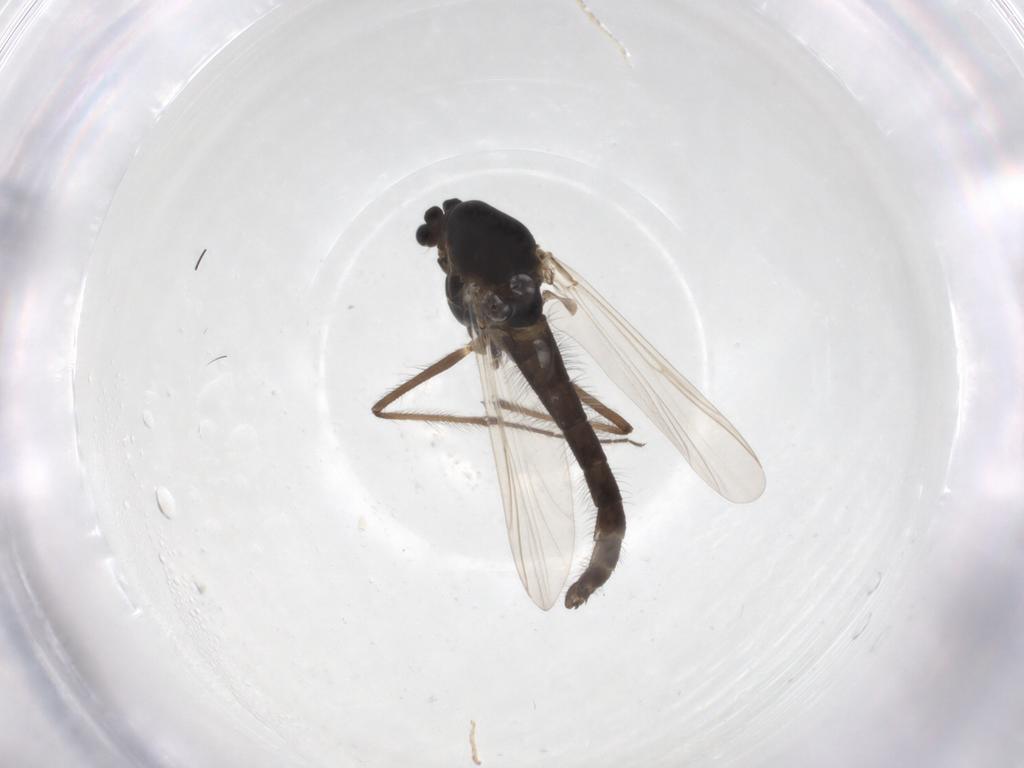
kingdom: Animalia
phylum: Arthropoda
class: Insecta
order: Diptera
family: Chironomidae
